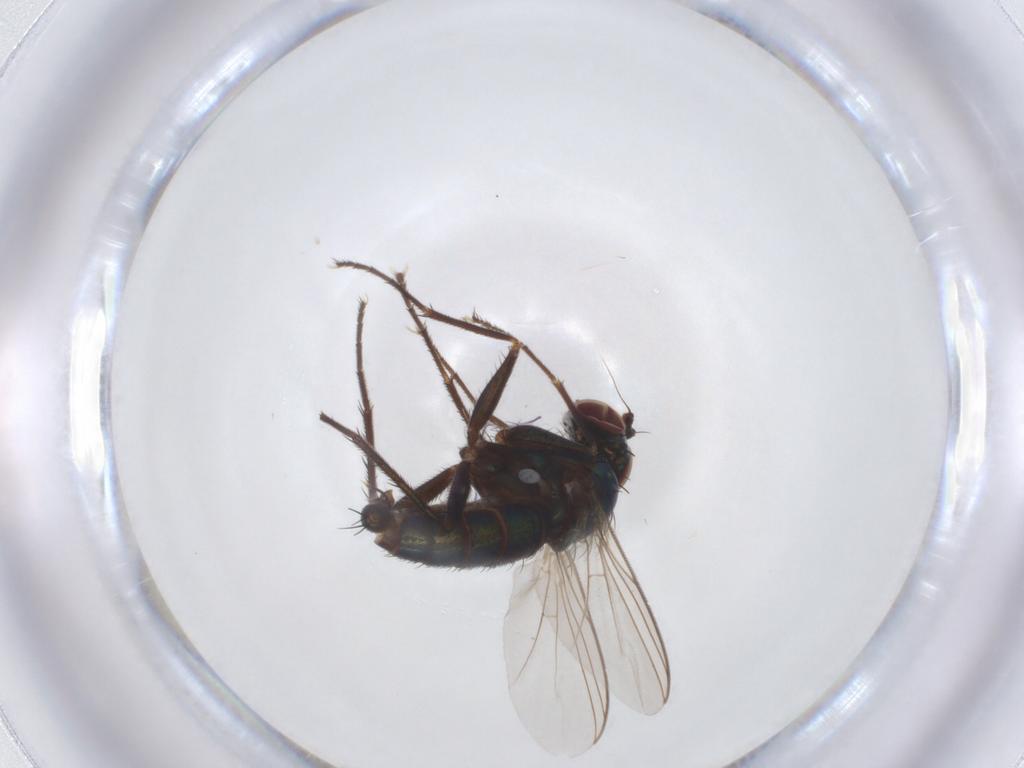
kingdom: Animalia
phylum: Arthropoda
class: Insecta
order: Diptera
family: Dolichopodidae
